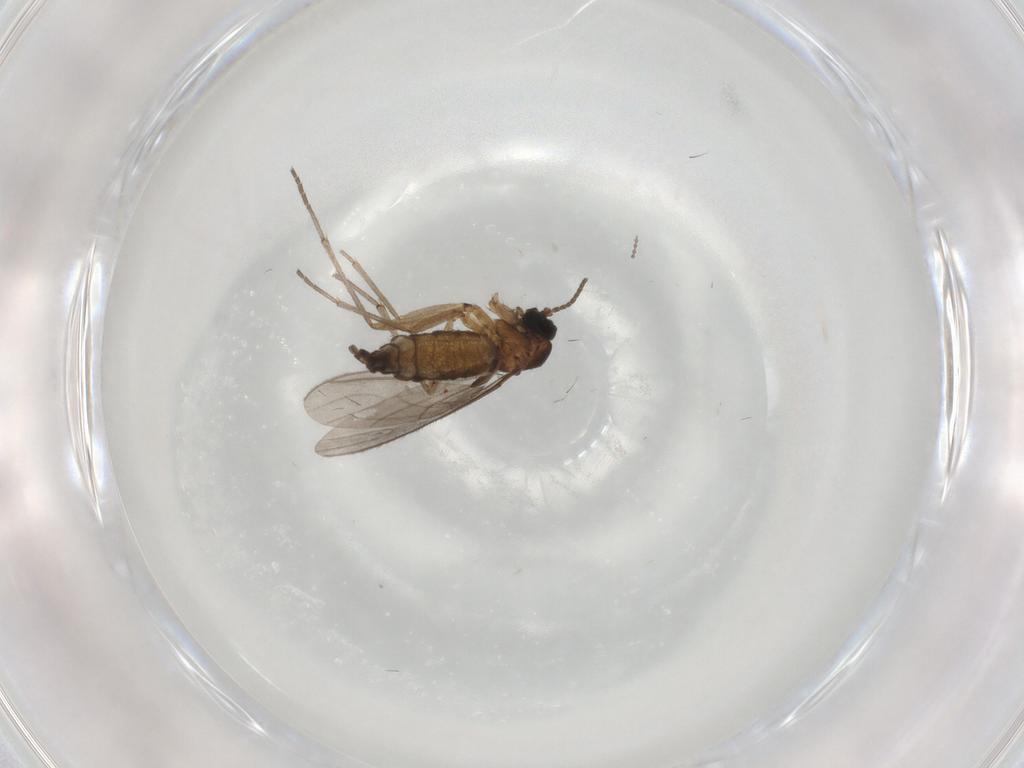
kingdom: Animalia
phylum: Arthropoda
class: Insecta
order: Diptera
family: Sciaridae
